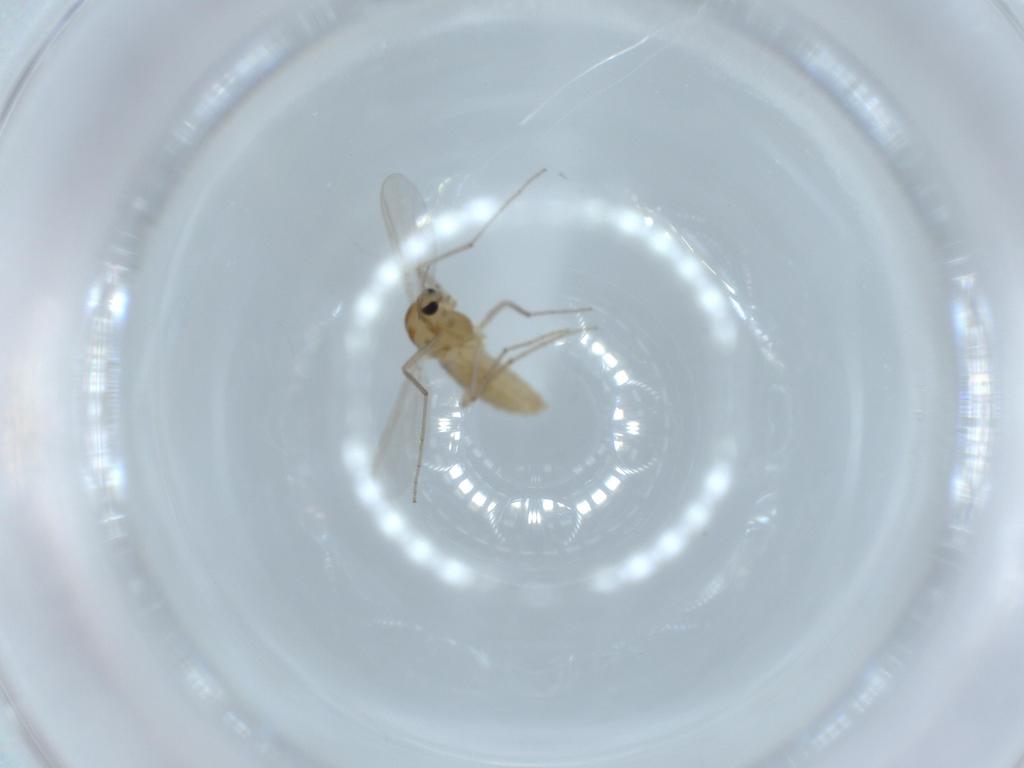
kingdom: Animalia
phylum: Arthropoda
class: Insecta
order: Diptera
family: Chironomidae
